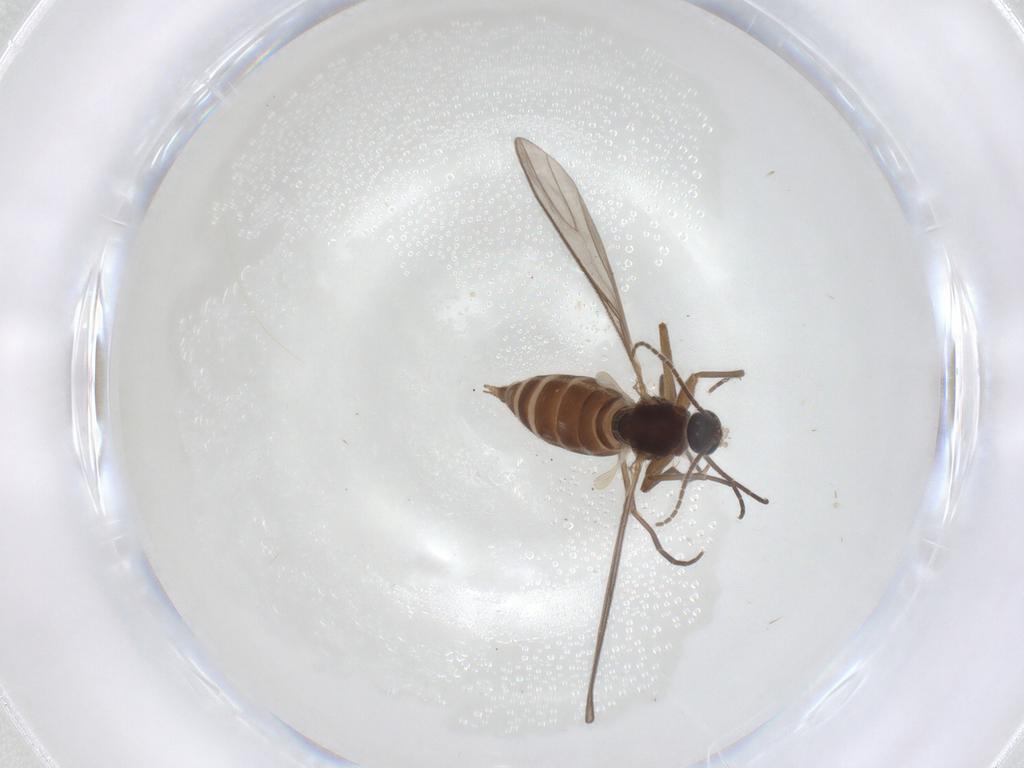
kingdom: Animalia
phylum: Arthropoda
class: Insecta
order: Diptera
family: Sciaridae
